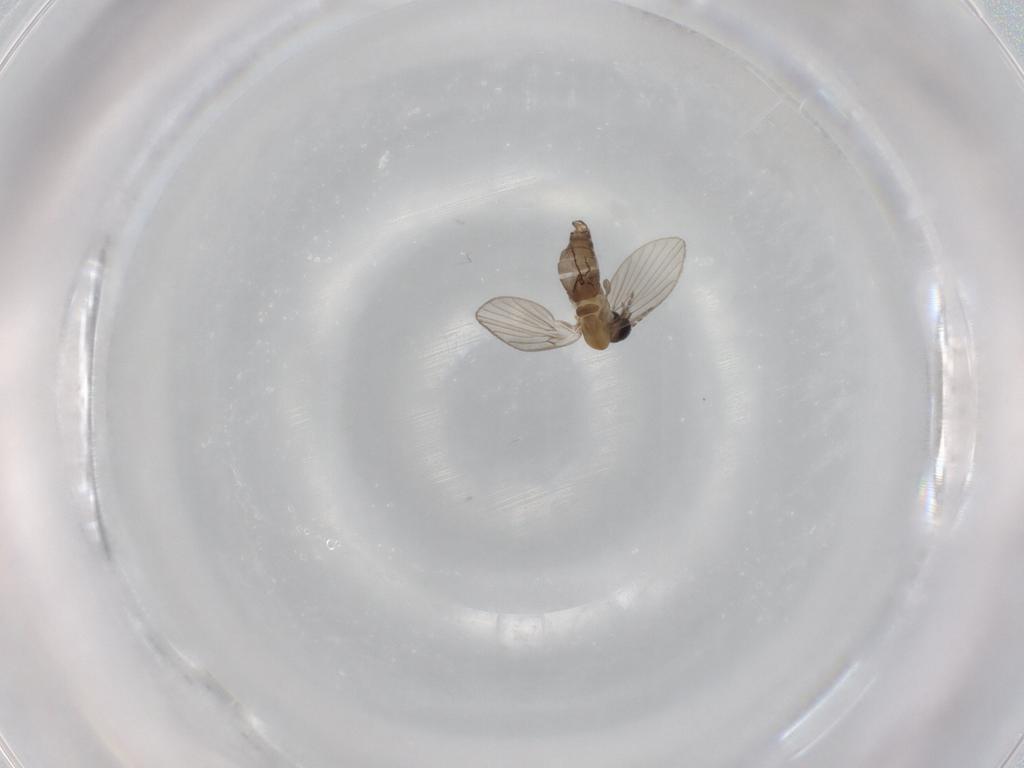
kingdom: Animalia
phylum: Arthropoda
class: Insecta
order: Diptera
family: Psychodidae
